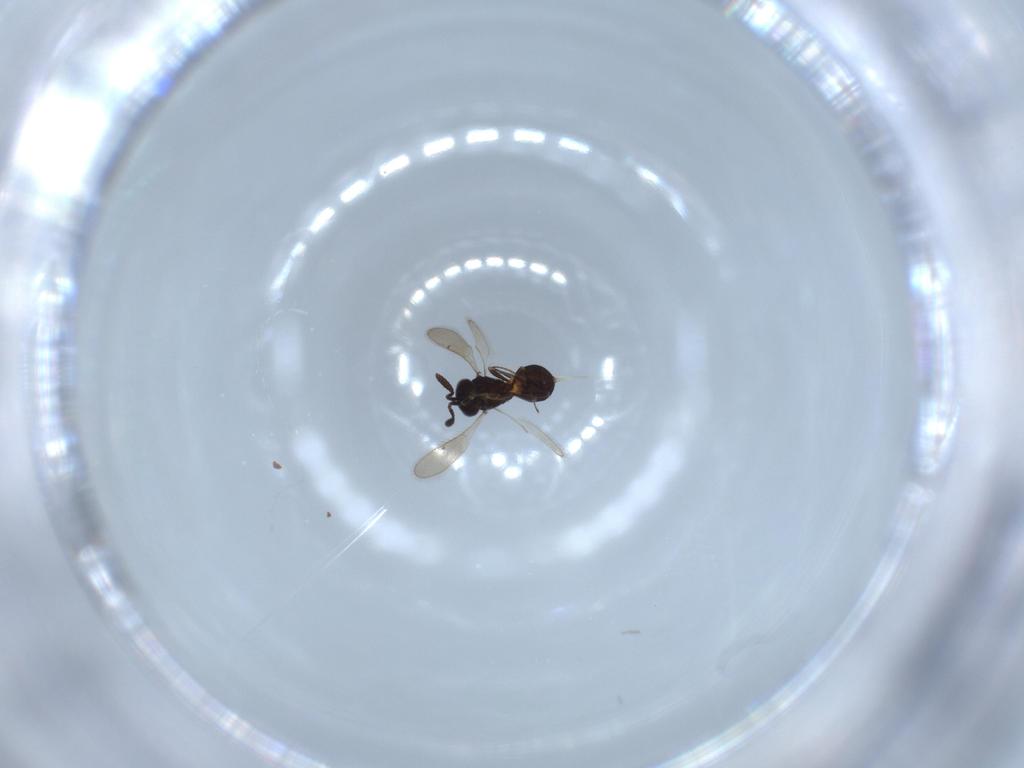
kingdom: Animalia
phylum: Arthropoda
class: Insecta
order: Hymenoptera
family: Scelionidae
